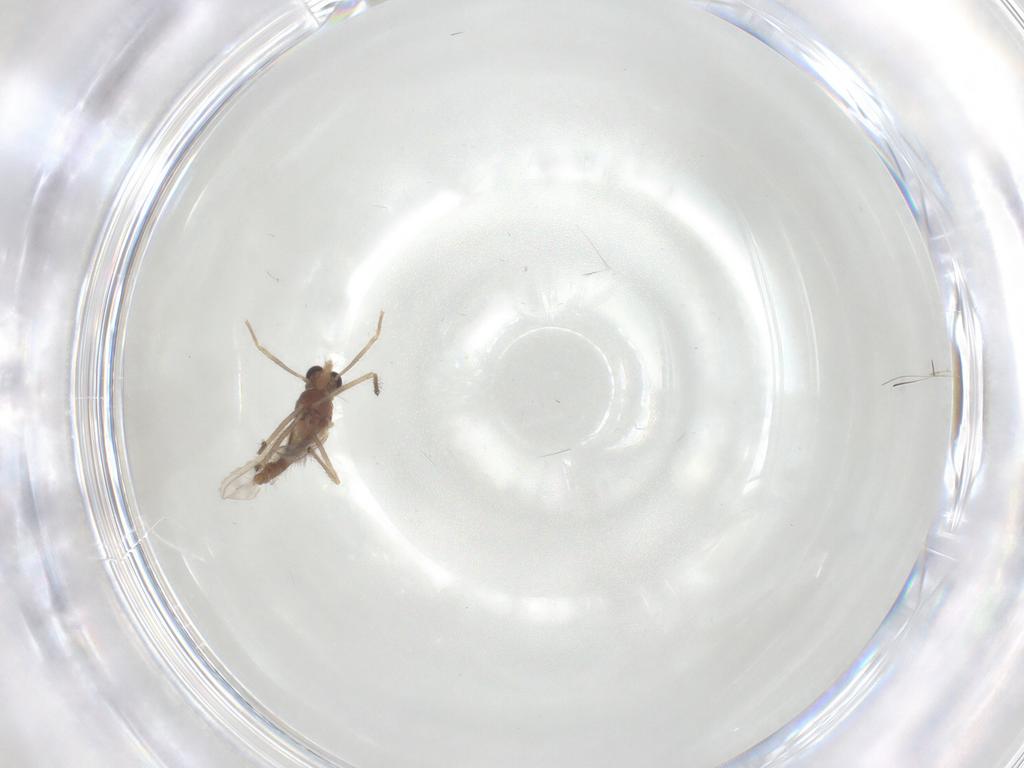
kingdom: Animalia
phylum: Arthropoda
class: Insecta
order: Diptera
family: Chironomidae
